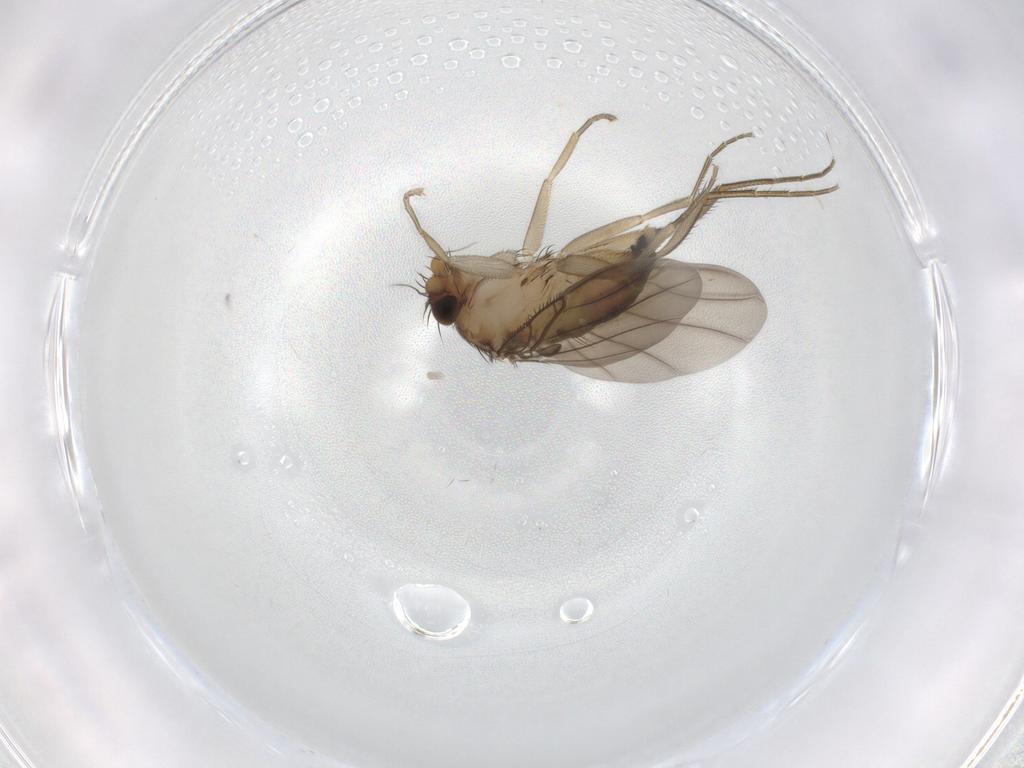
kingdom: Animalia
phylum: Arthropoda
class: Insecta
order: Diptera
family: Phoridae
